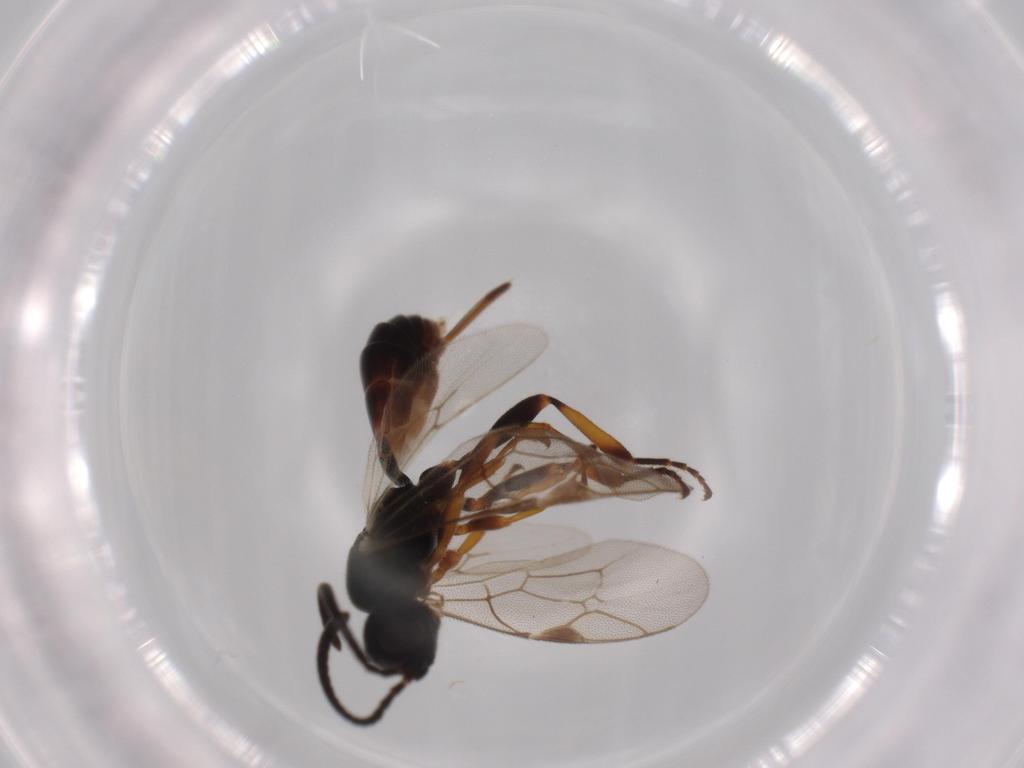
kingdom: Animalia
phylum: Arthropoda
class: Insecta
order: Hymenoptera
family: Ichneumonidae
